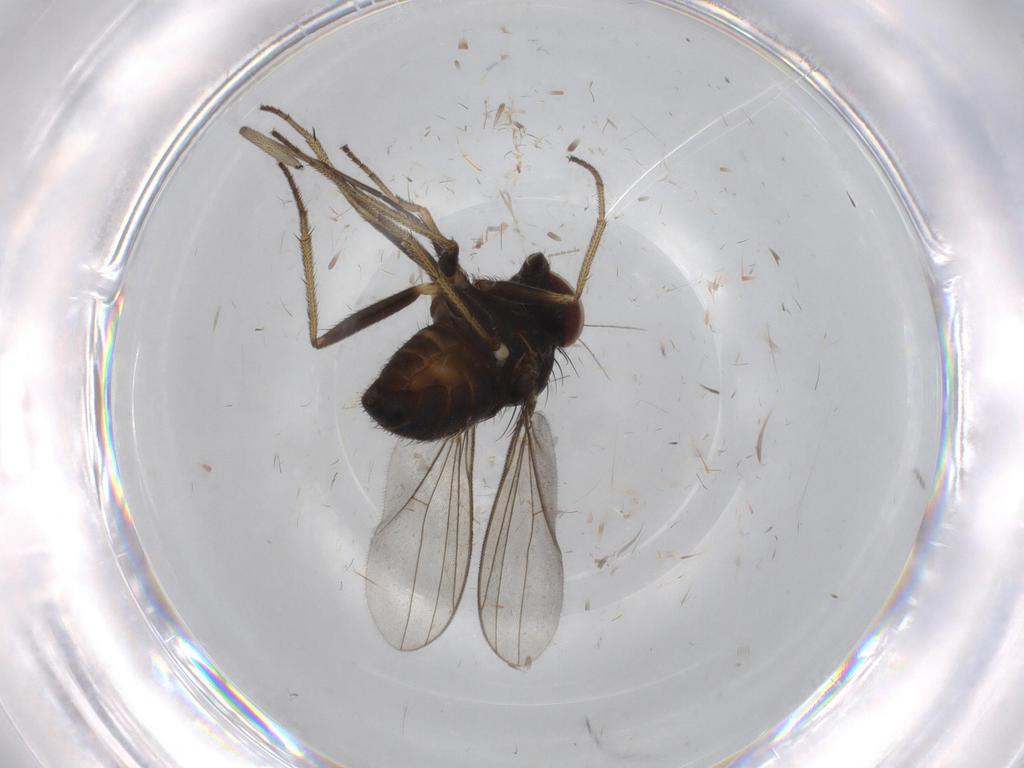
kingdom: Animalia
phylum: Arthropoda
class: Insecta
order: Diptera
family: Dolichopodidae
